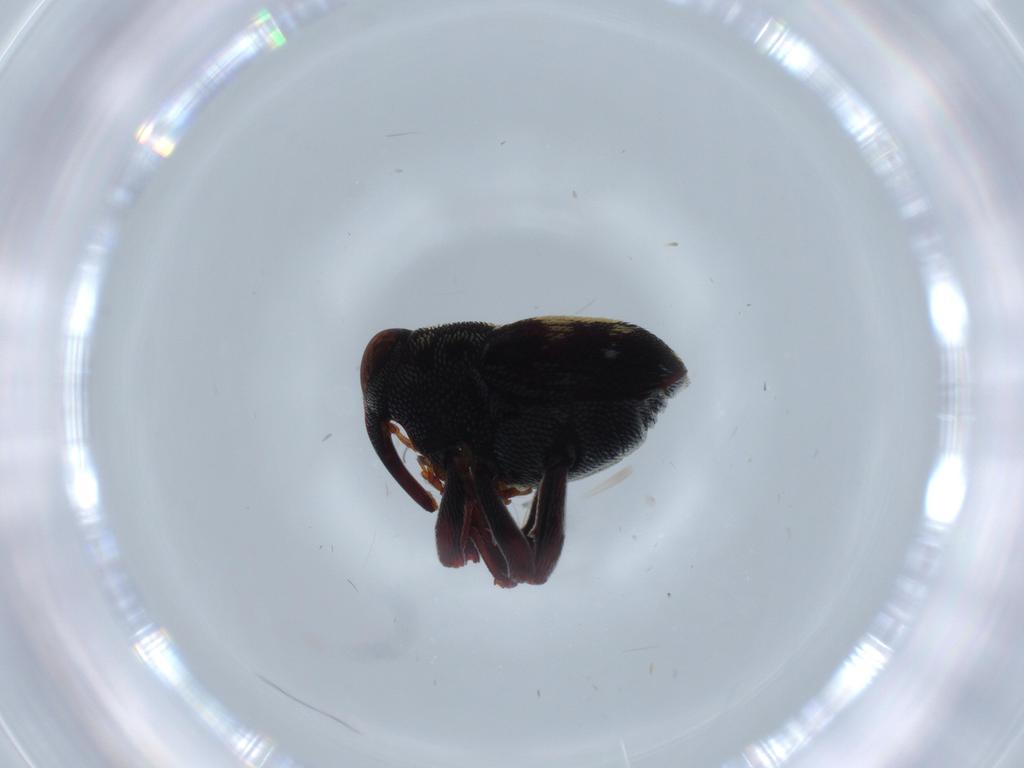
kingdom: Animalia
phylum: Arthropoda
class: Insecta
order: Coleoptera
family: Curculionidae
